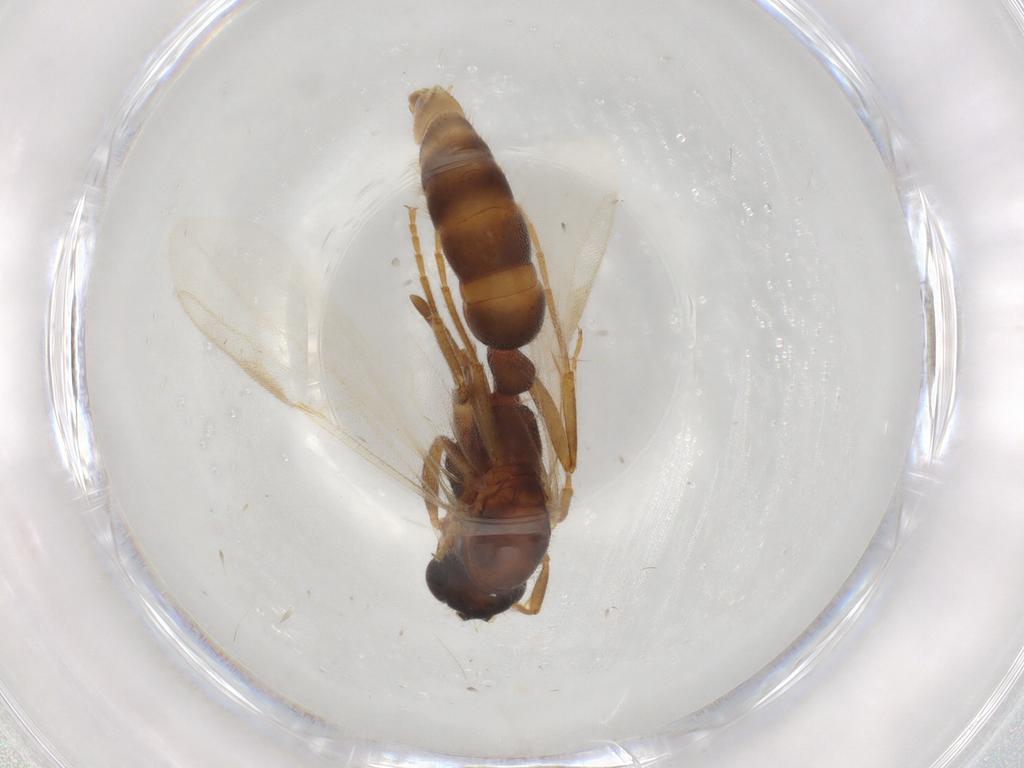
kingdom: Animalia
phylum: Arthropoda
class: Insecta
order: Hymenoptera
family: Formicidae
